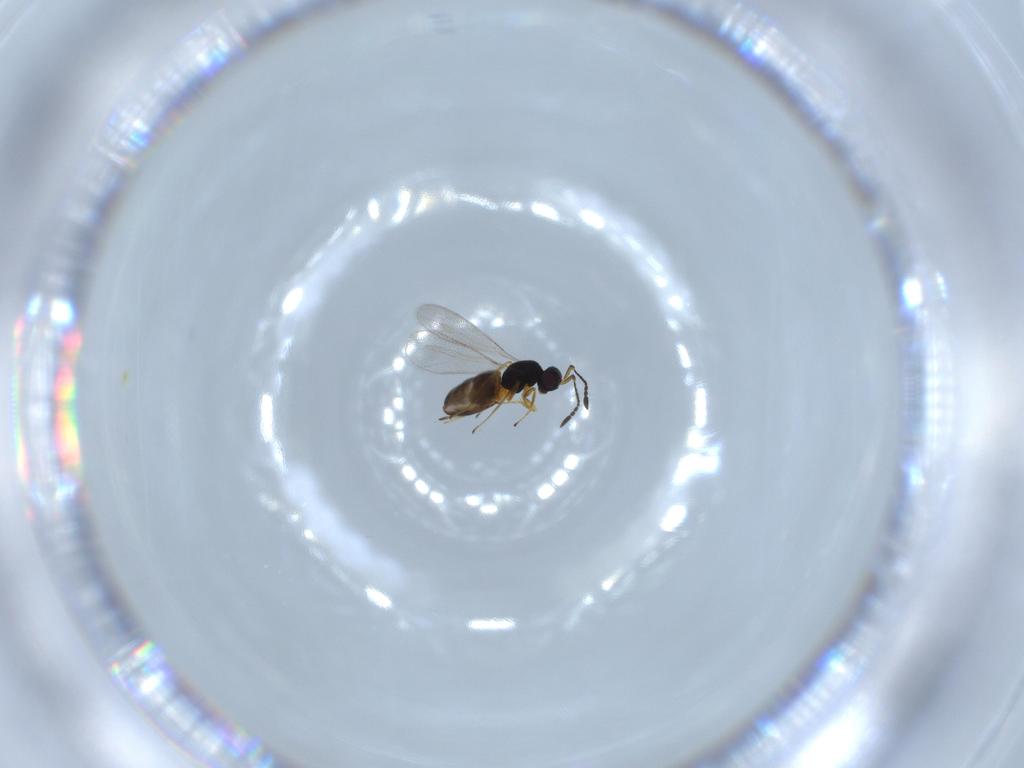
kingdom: Animalia
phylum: Arthropoda
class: Insecta
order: Hymenoptera
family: Mymaridae
